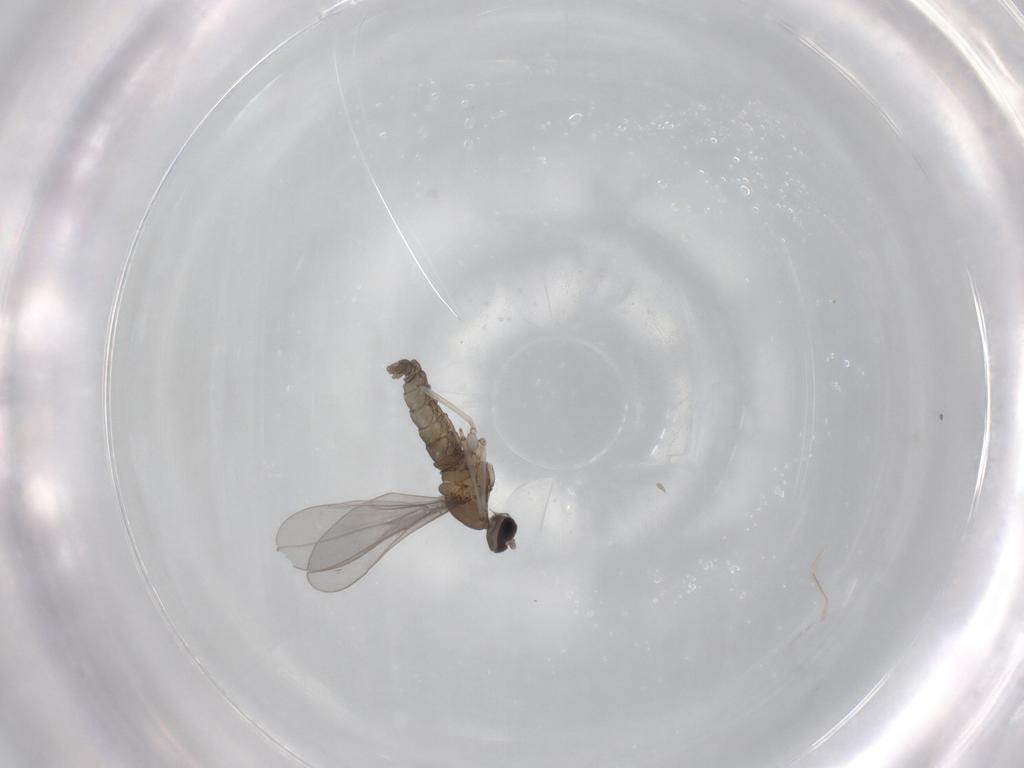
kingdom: Animalia
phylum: Arthropoda
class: Insecta
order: Diptera
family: Cecidomyiidae
